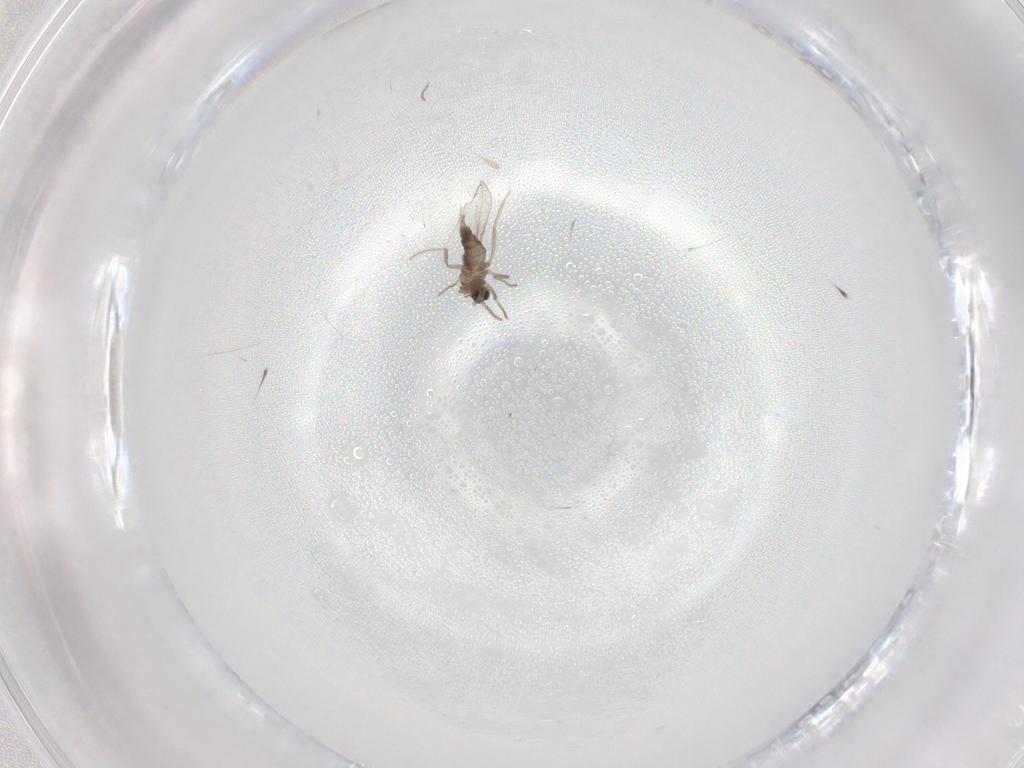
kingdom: Animalia
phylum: Arthropoda
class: Insecta
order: Diptera
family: Cecidomyiidae
